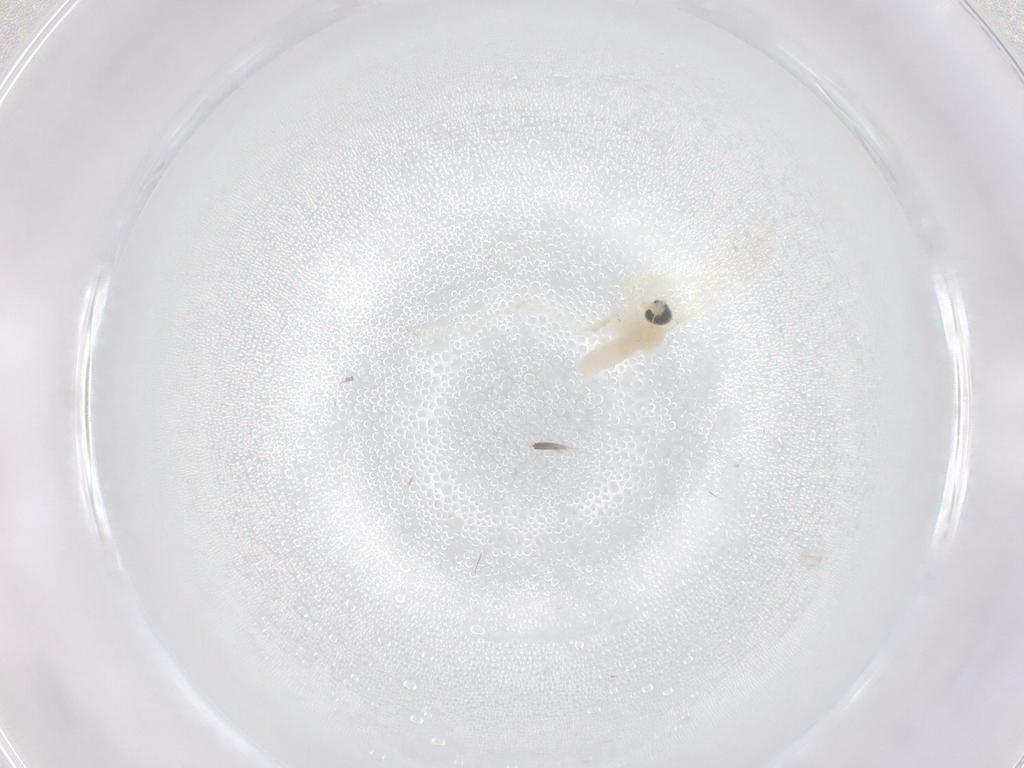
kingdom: Animalia
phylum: Arthropoda
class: Insecta
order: Diptera
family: Cecidomyiidae
